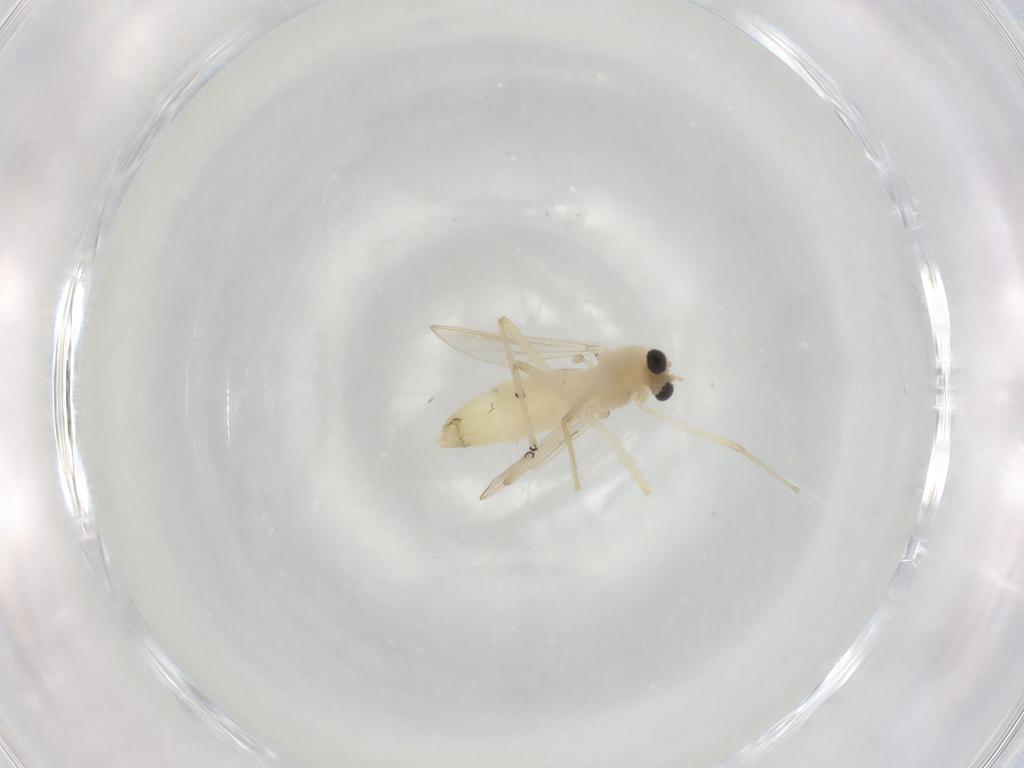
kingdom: Animalia
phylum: Arthropoda
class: Insecta
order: Diptera
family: Chironomidae
